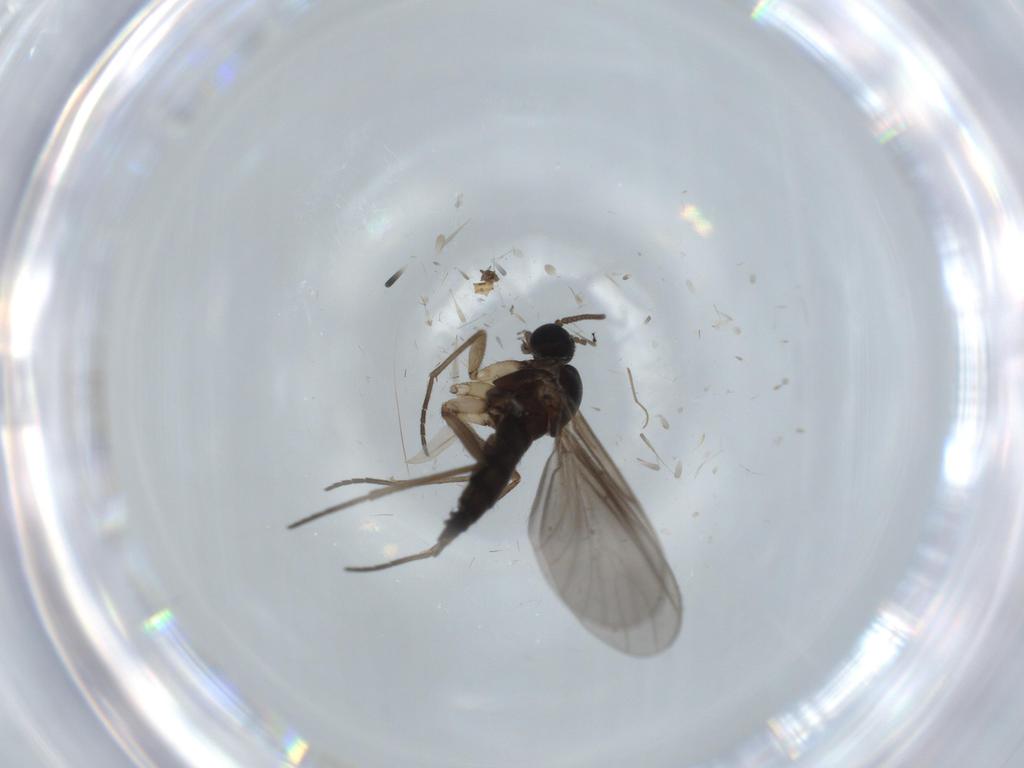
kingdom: Animalia
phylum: Arthropoda
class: Insecta
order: Diptera
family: Sciaridae
